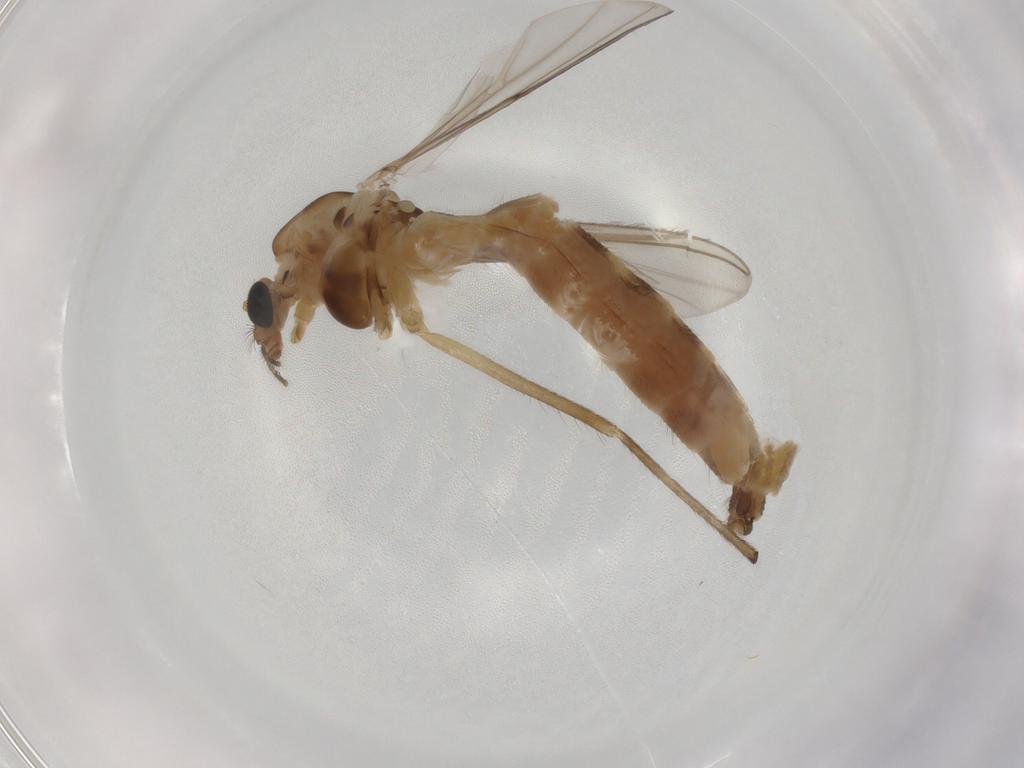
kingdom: Animalia
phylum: Arthropoda
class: Insecta
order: Diptera
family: Chironomidae
